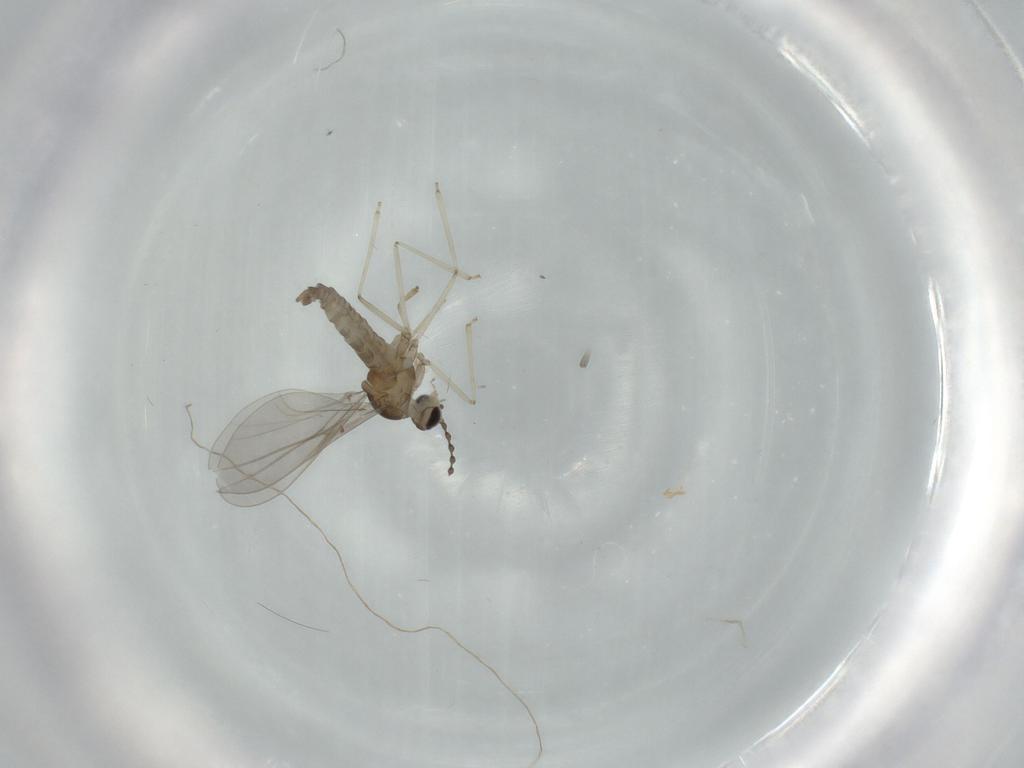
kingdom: Animalia
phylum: Arthropoda
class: Insecta
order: Diptera
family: Cecidomyiidae
